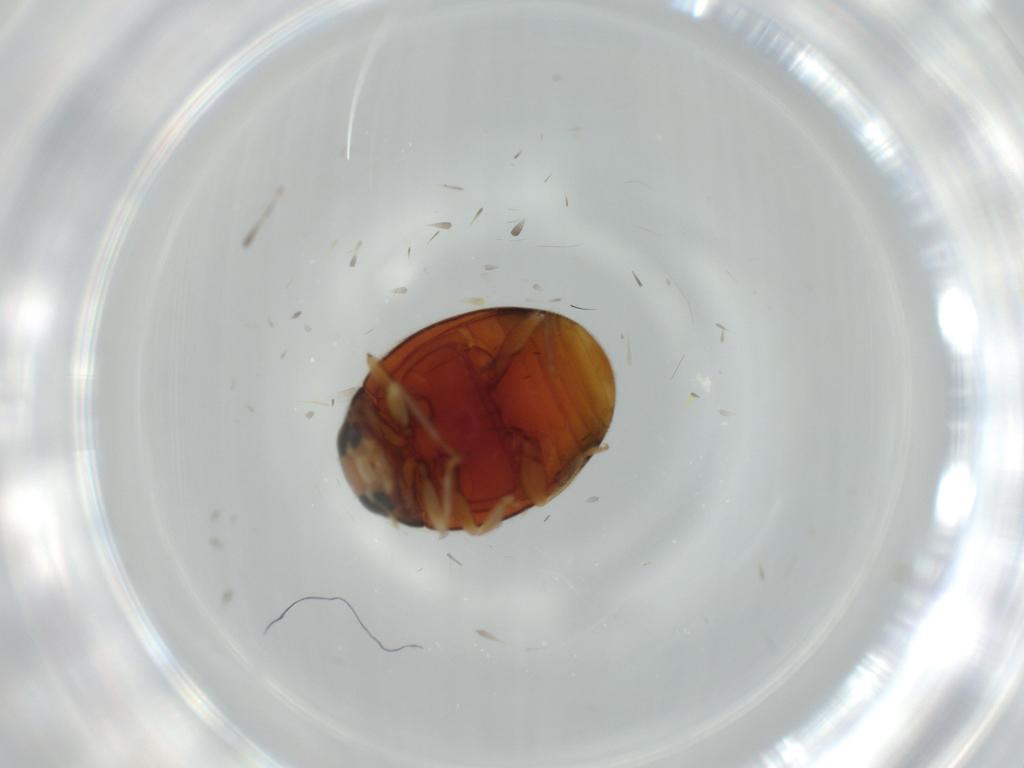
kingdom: Animalia
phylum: Arthropoda
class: Insecta
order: Coleoptera
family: Coccinellidae
